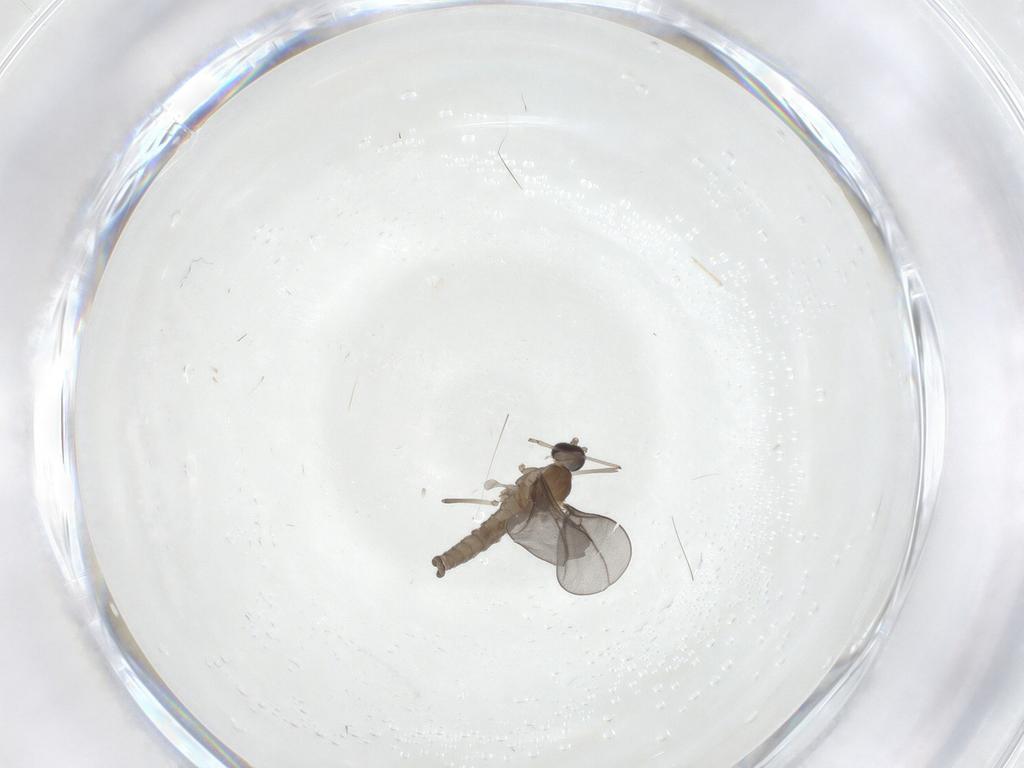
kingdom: Animalia
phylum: Arthropoda
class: Insecta
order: Diptera
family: Cecidomyiidae
